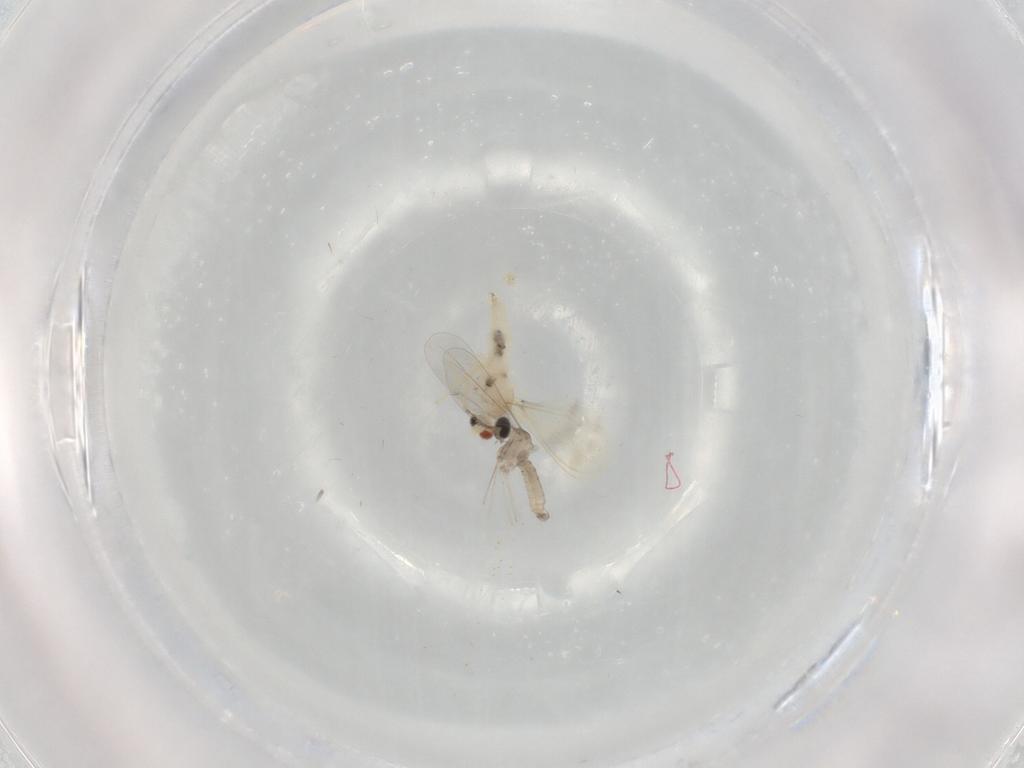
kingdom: Animalia
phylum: Arthropoda
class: Insecta
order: Diptera
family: Cecidomyiidae
